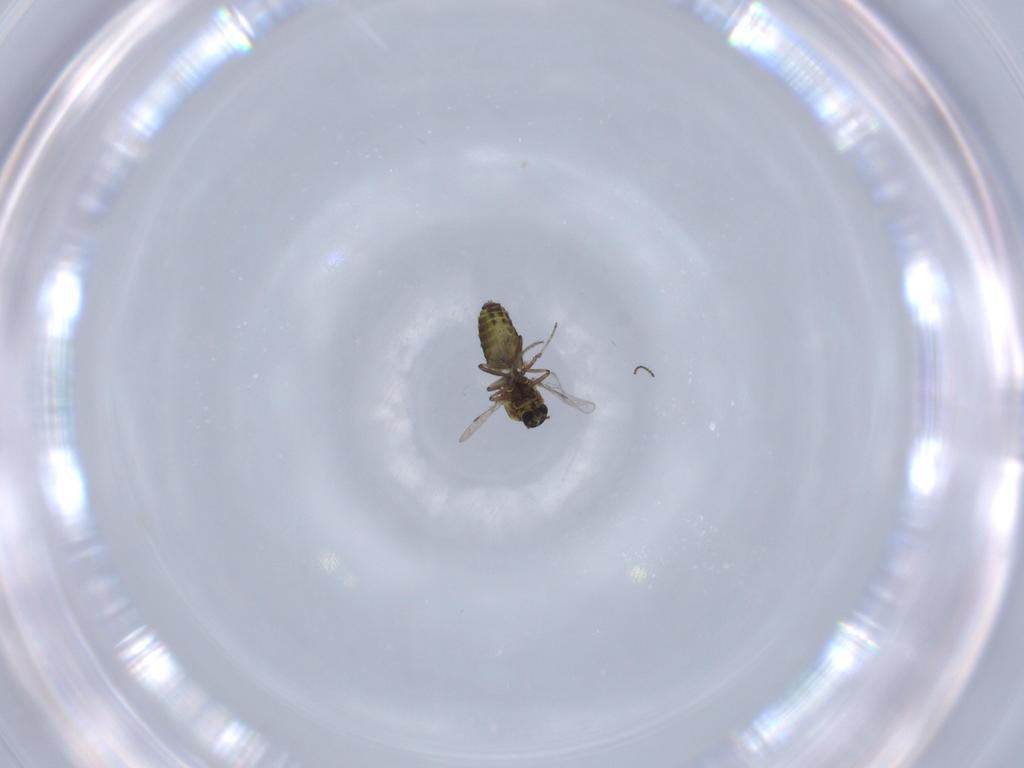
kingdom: Animalia
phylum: Arthropoda
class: Insecta
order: Diptera
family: Ceratopogonidae
